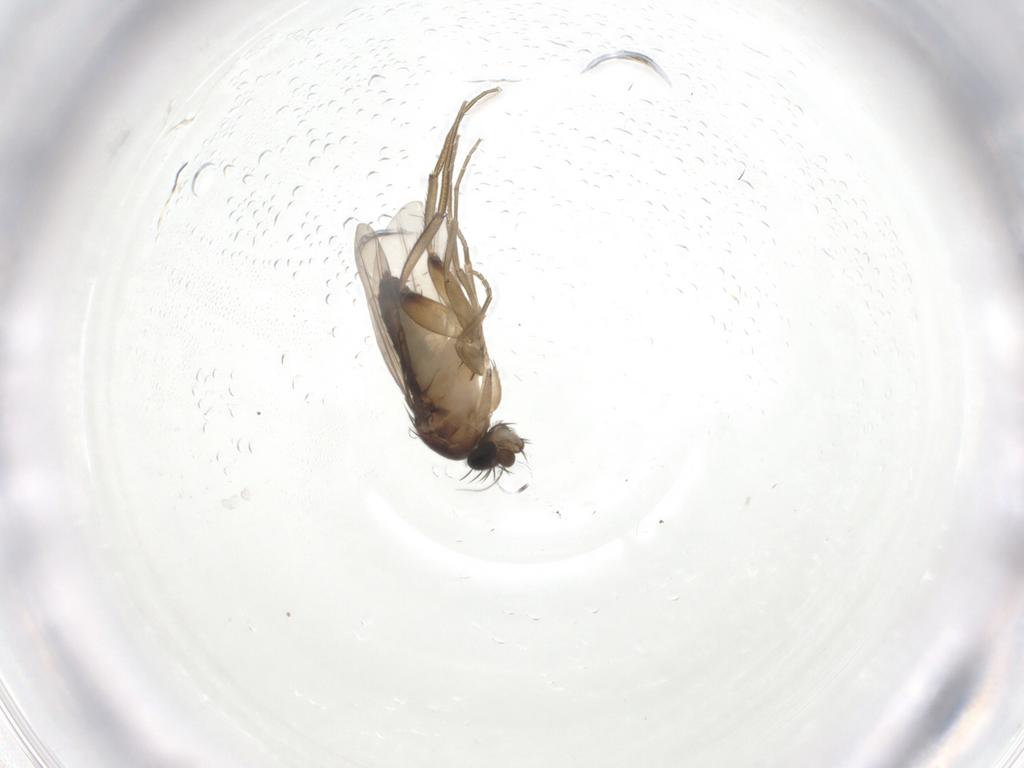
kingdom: Animalia
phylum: Arthropoda
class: Insecta
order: Diptera
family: Phoridae
